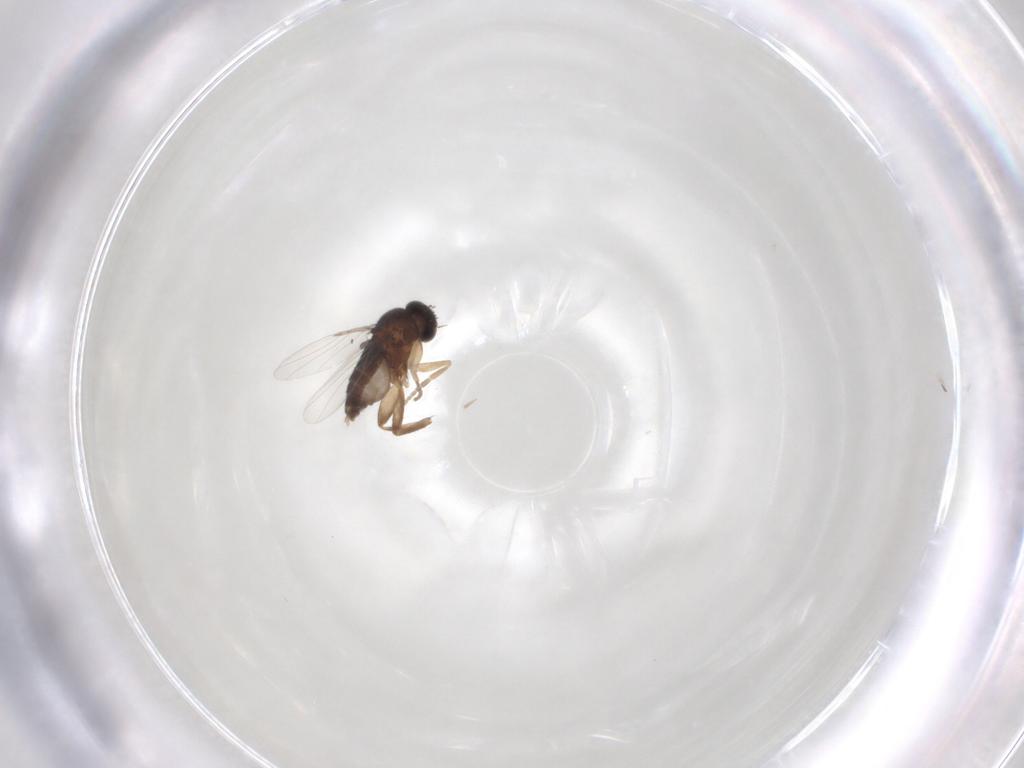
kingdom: Animalia
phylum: Arthropoda
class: Insecta
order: Diptera
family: Phoridae
